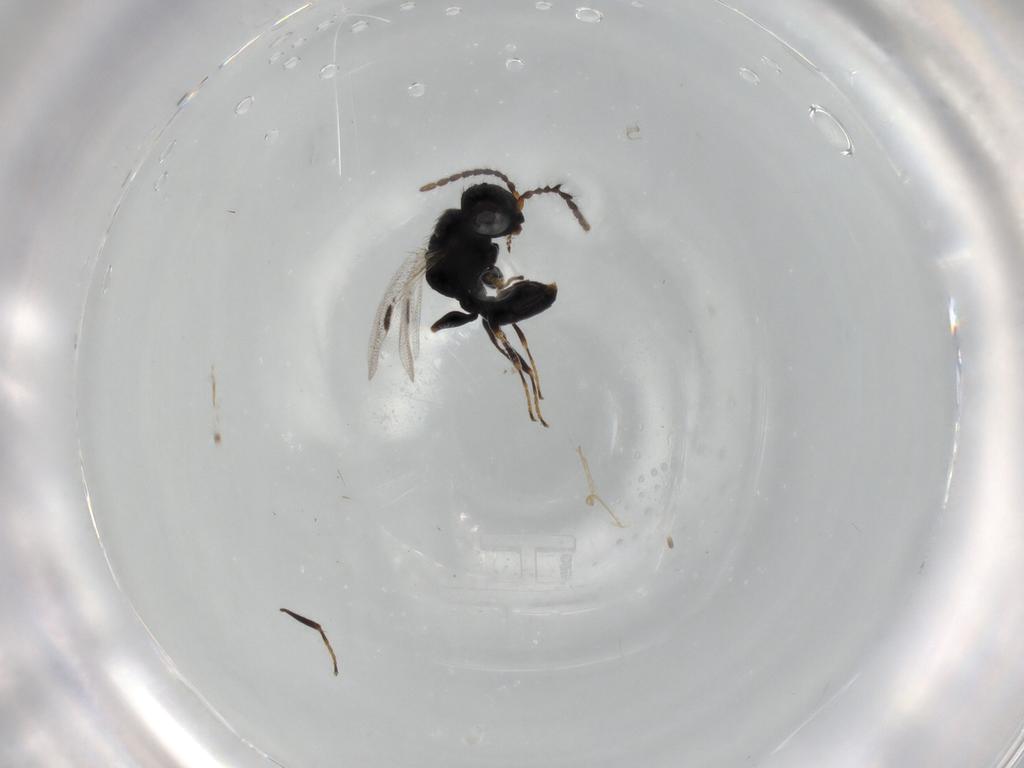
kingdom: Animalia
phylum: Arthropoda
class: Insecta
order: Hymenoptera
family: Dryinidae
